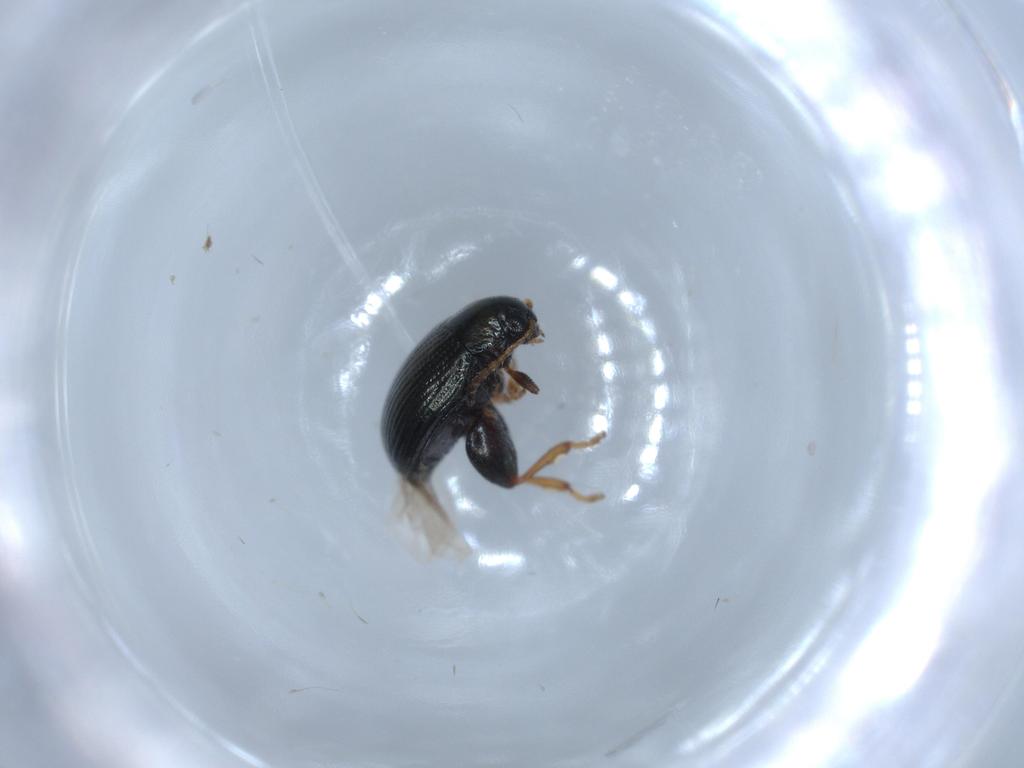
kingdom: Animalia
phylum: Arthropoda
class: Insecta
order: Coleoptera
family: Chrysomelidae
